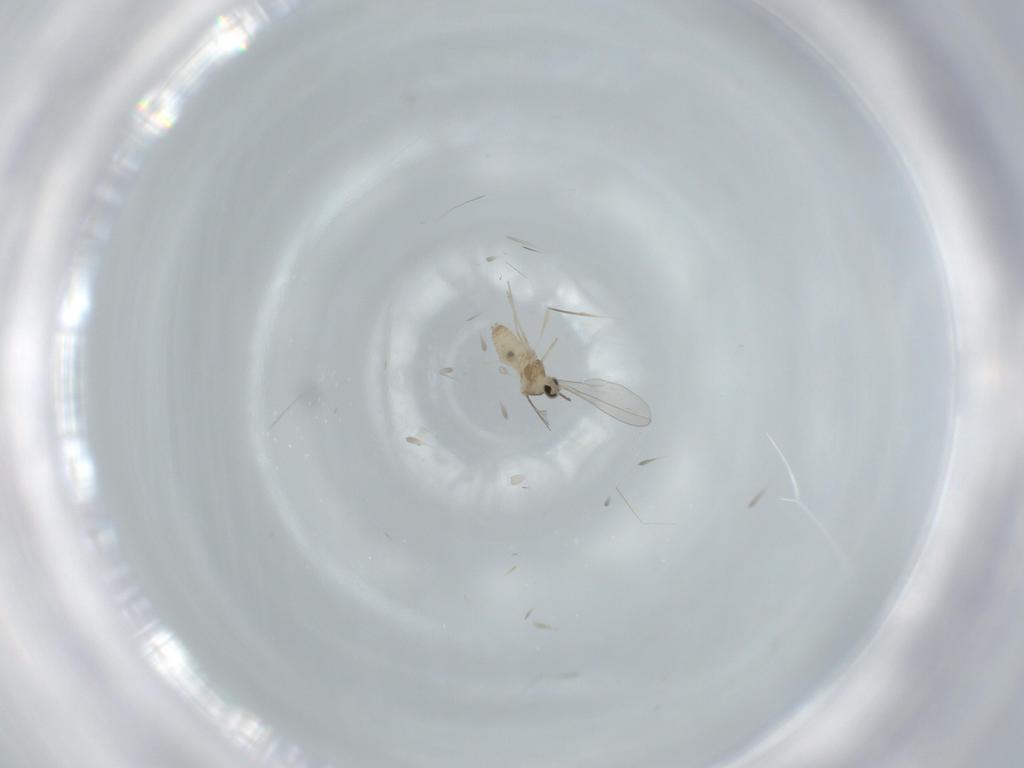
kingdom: Animalia
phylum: Arthropoda
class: Insecta
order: Diptera
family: Cecidomyiidae
